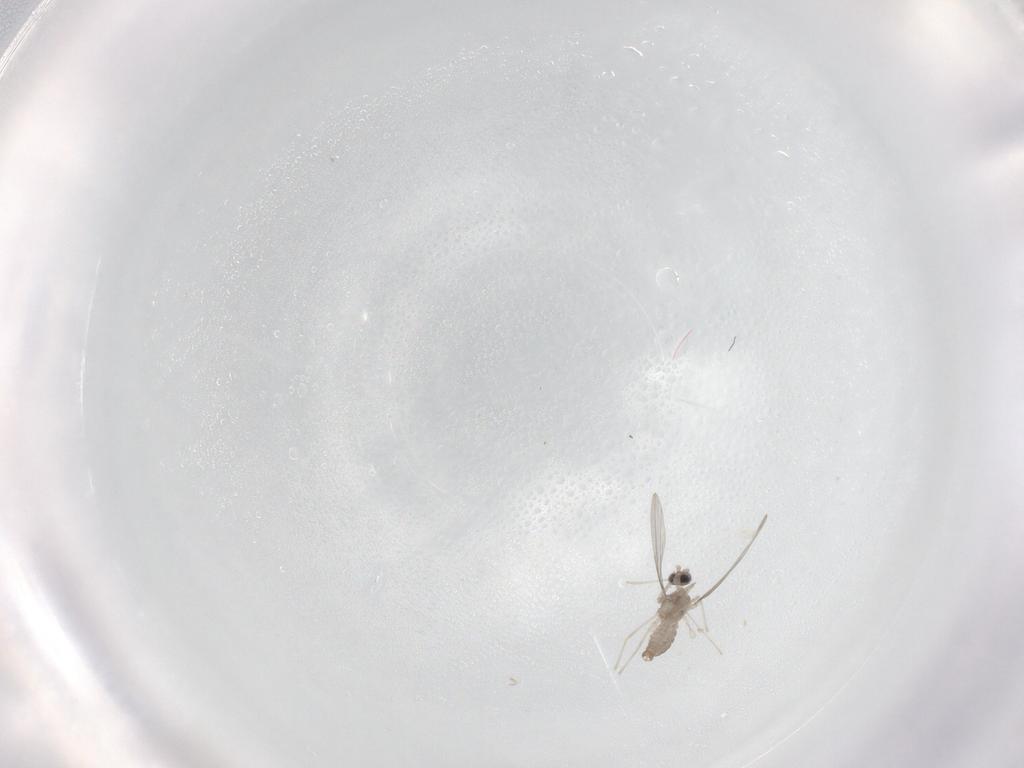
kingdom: Animalia
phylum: Arthropoda
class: Insecta
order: Diptera
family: Cecidomyiidae
